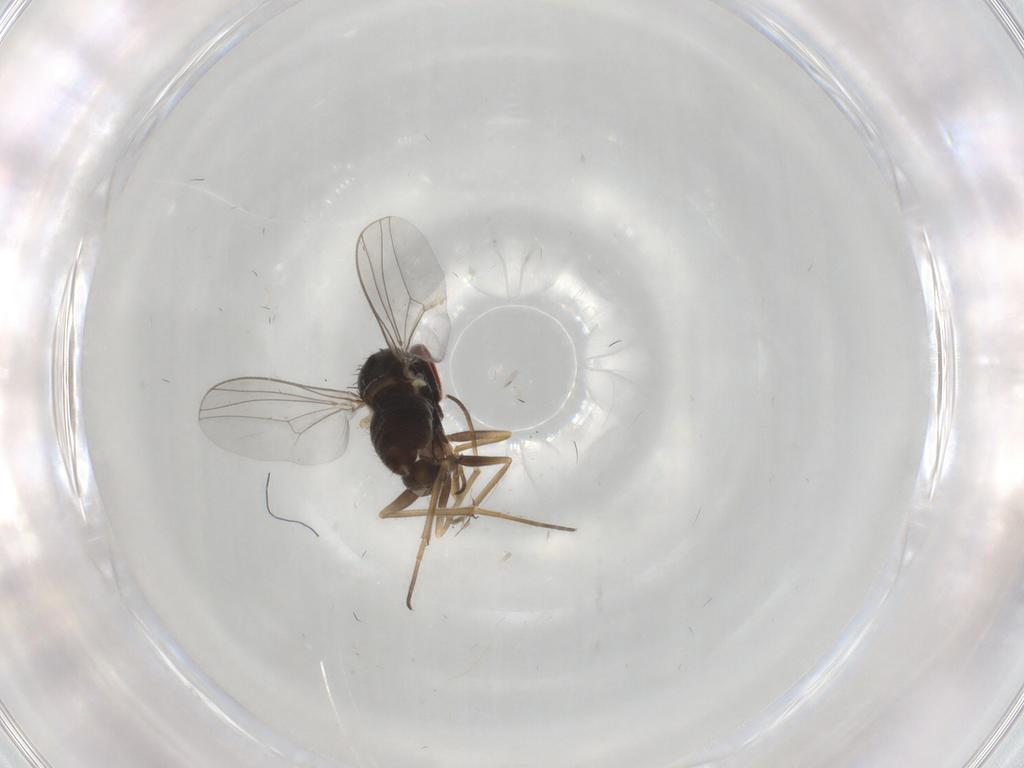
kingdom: Animalia
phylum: Arthropoda
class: Insecta
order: Diptera
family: Dolichopodidae
